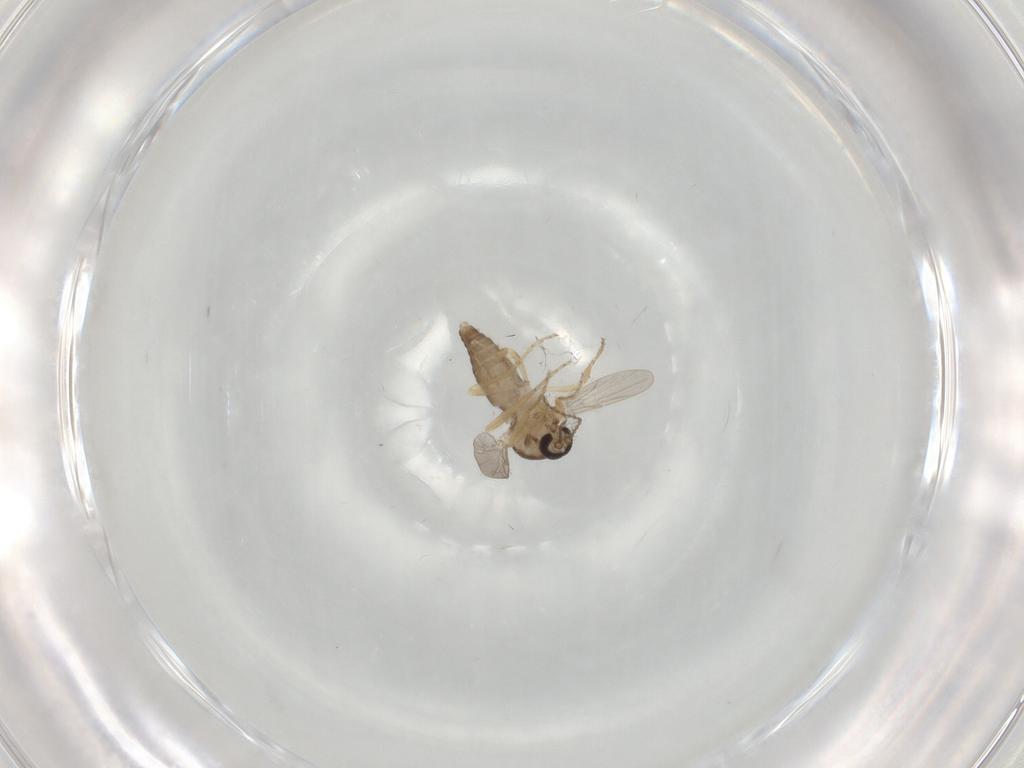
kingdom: Animalia
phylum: Arthropoda
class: Insecta
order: Diptera
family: Ceratopogonidae
